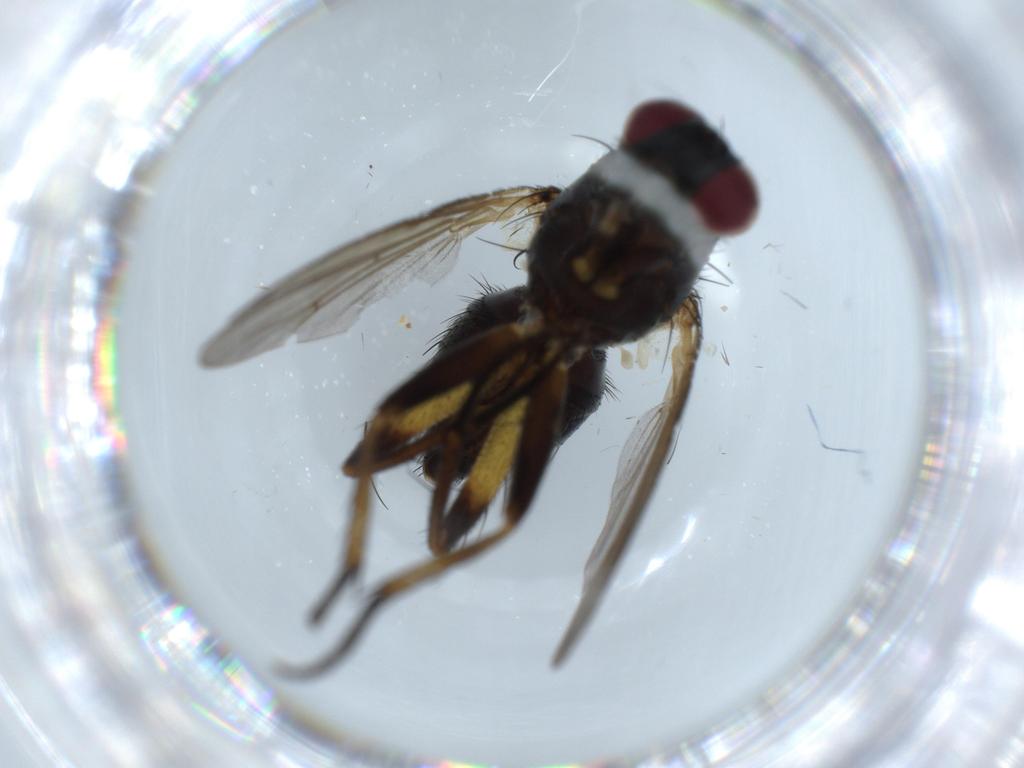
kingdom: Animalia
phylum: Arthropoda
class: Insecta
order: Diptera
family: Muscidae
